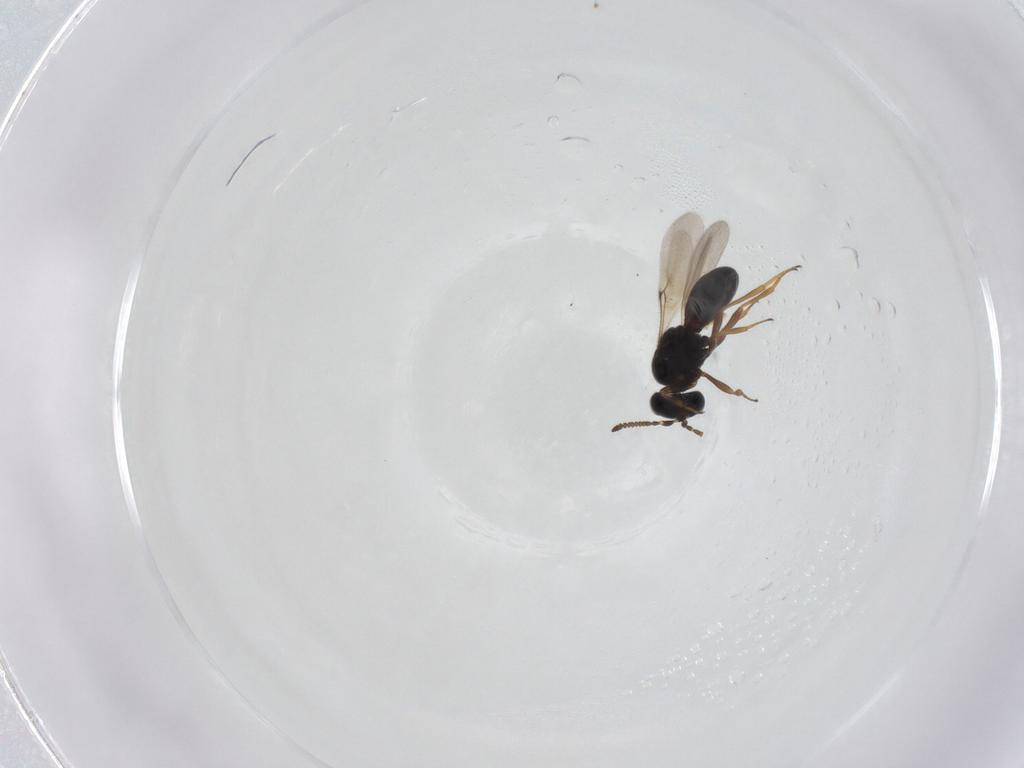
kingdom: Animalia
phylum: Arthropoda
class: Insecta
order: Hymenoptera
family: Scelionidae
